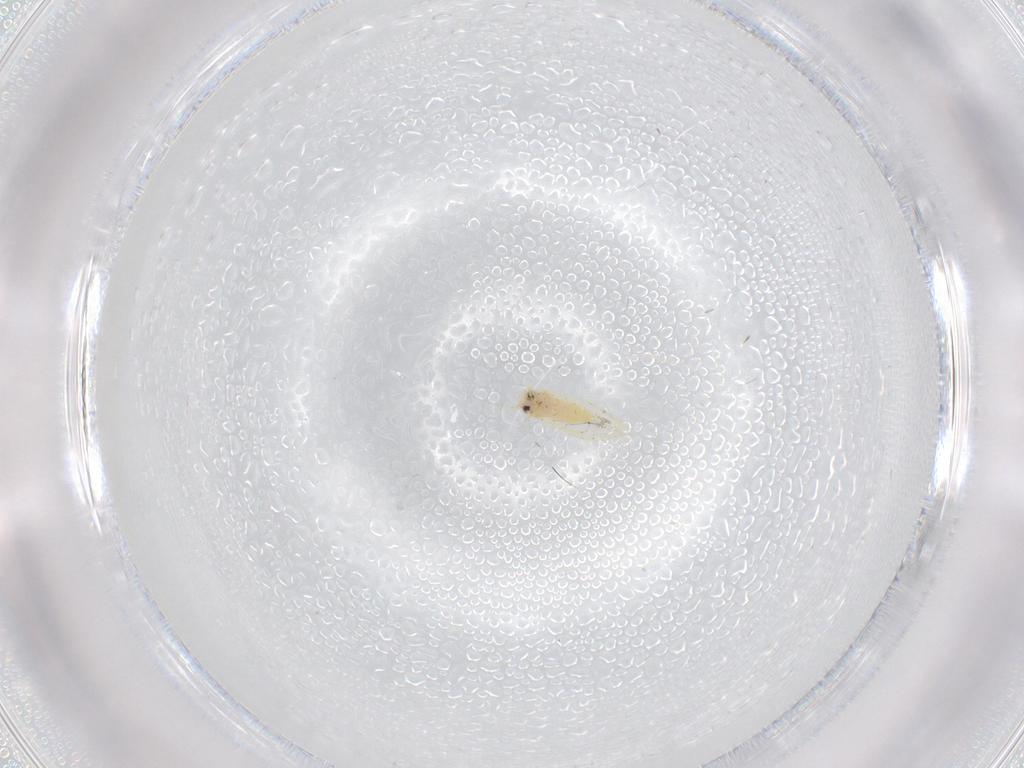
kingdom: Animalia
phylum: Arthropoda
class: Insecta
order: Hemiptera
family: Aleyrodidae
